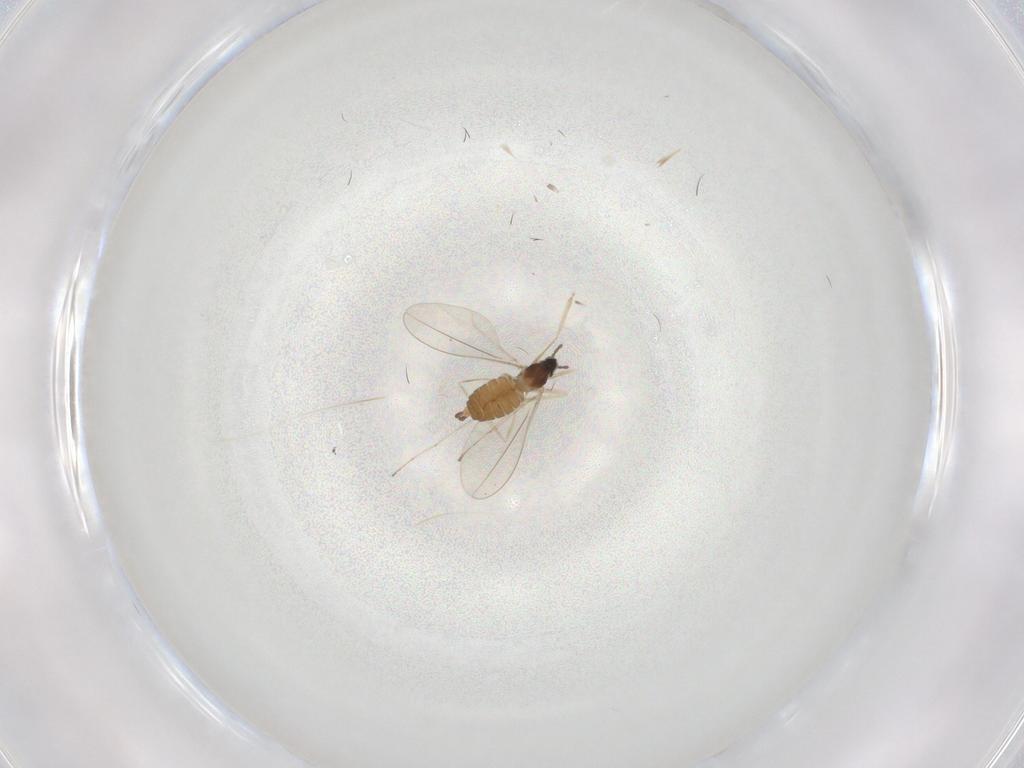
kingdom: Animalia
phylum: Arthropoda
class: Insecta
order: Diptera
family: Cecidomyiidae
